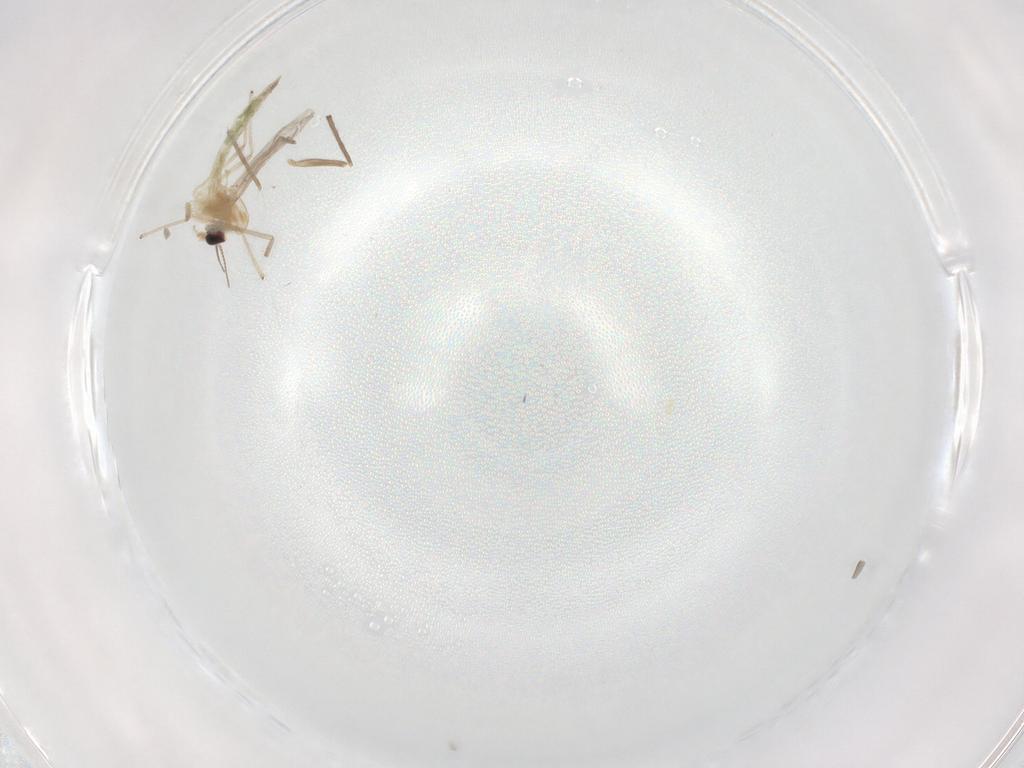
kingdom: Animalia
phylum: Arthropoda
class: Insecta
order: Diptera
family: Chironomidae
